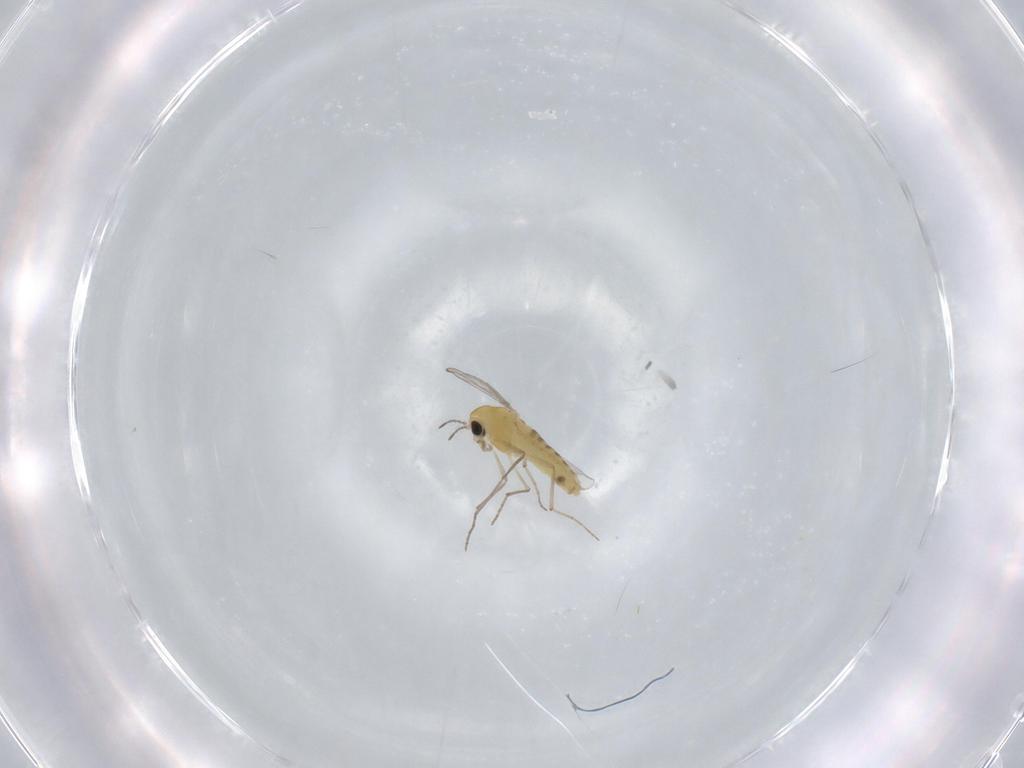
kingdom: Animalia
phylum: Arthropoda
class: Insecta
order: Diptera
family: Chironomidae
